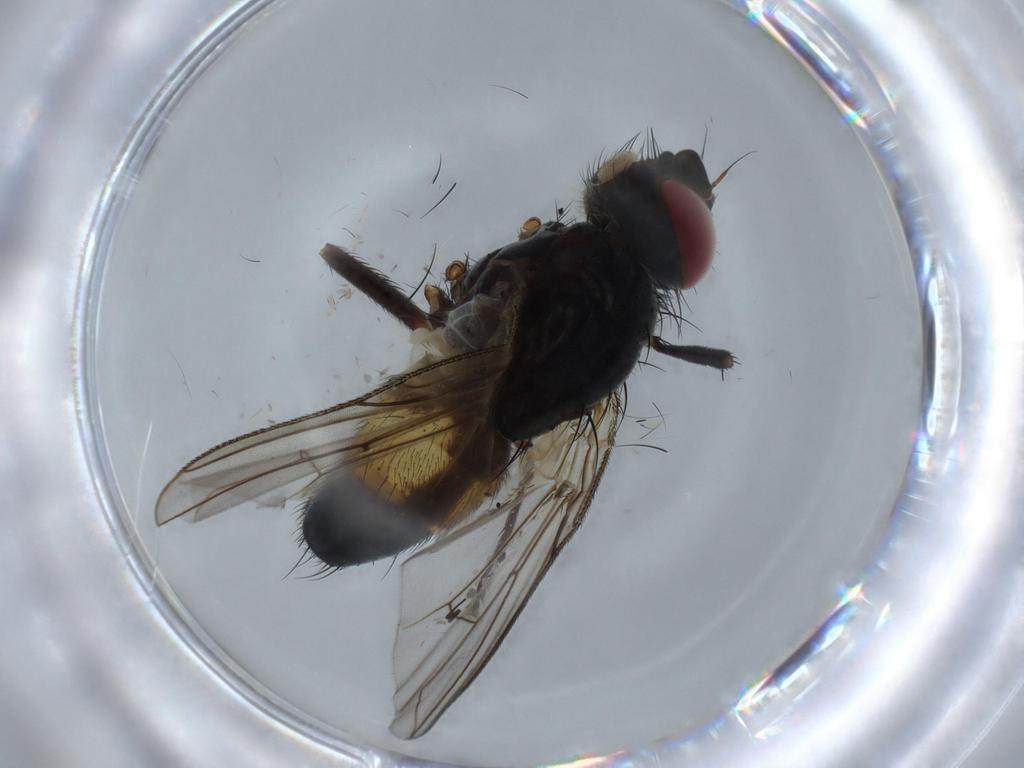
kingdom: Animalia
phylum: Arthropoda
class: Insecta
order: Diptera
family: Tachinidae
